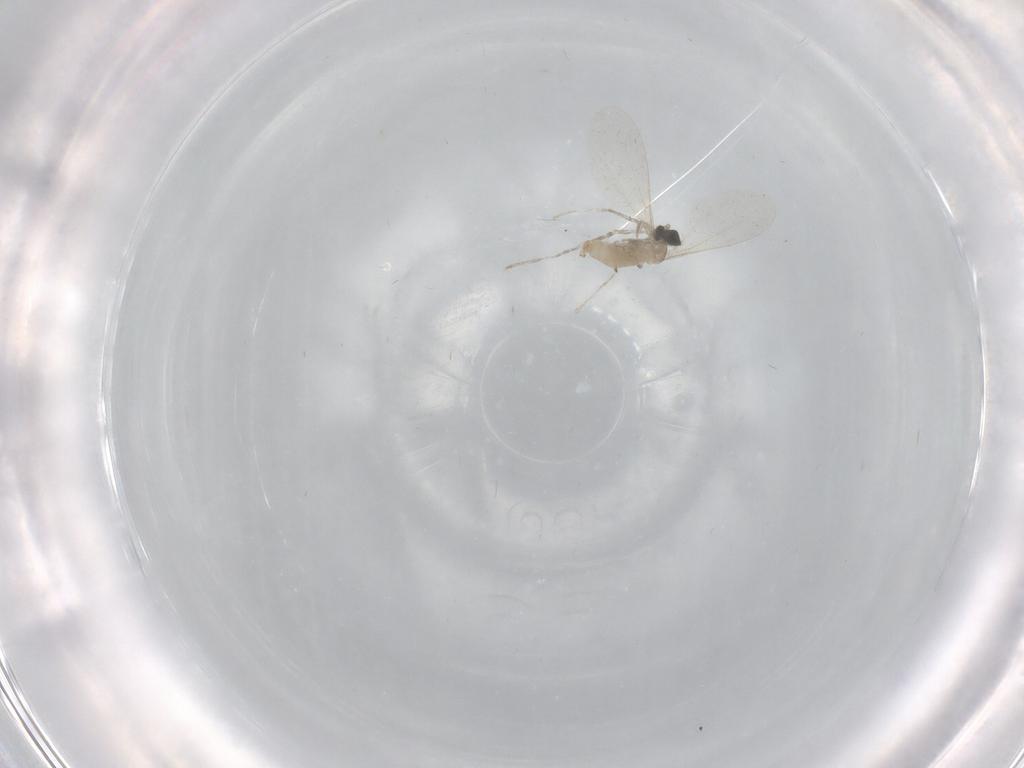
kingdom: Animalia
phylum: Arthropoda
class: Insecta
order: Diptera
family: Cecidomyiidae
